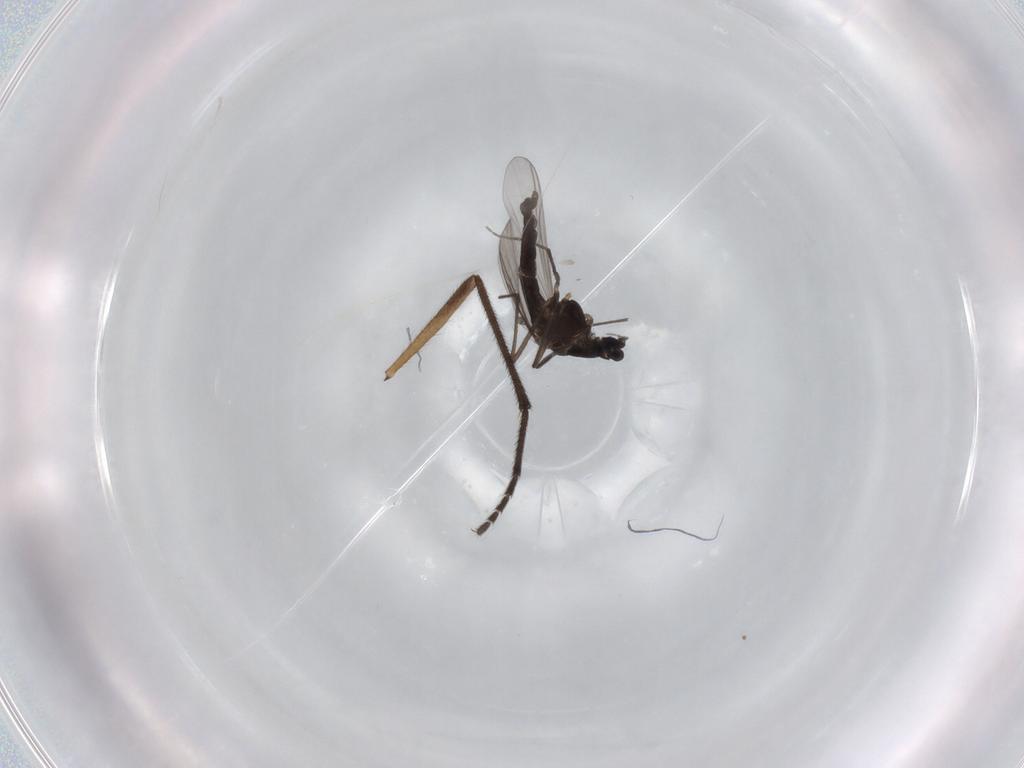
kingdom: Animalia
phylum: Arthropoda
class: Insecta
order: Diptera
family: Chironomidae
